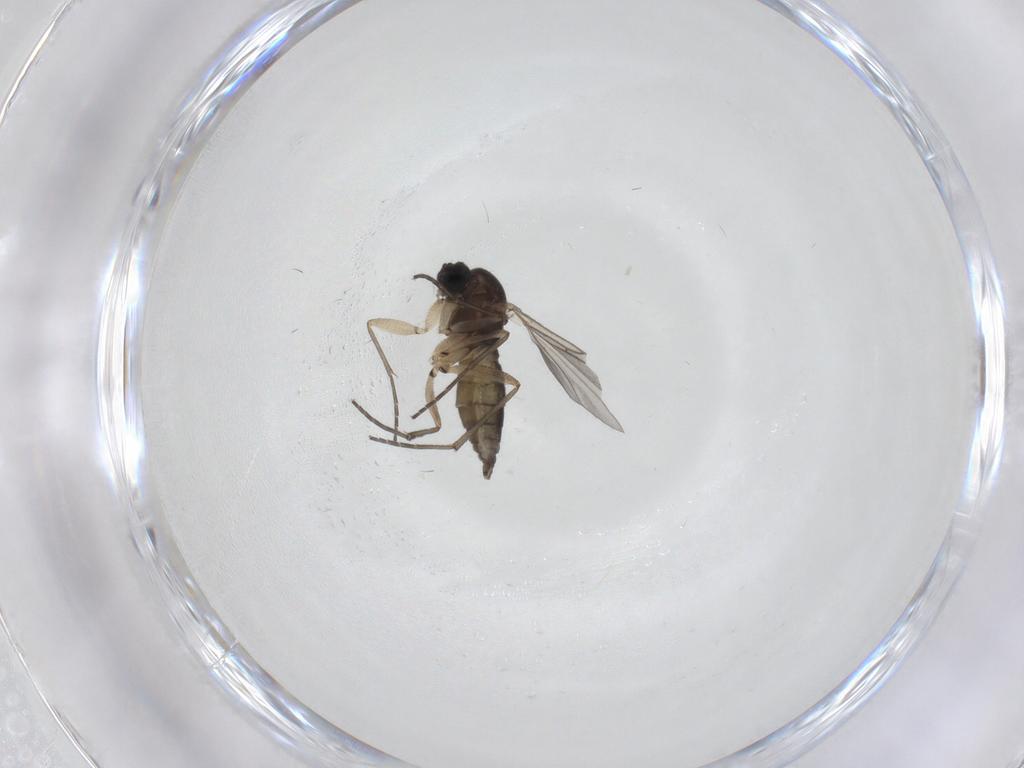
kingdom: Animalia
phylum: Arthropoda
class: Insecta
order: Diptera
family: Sciaridae
